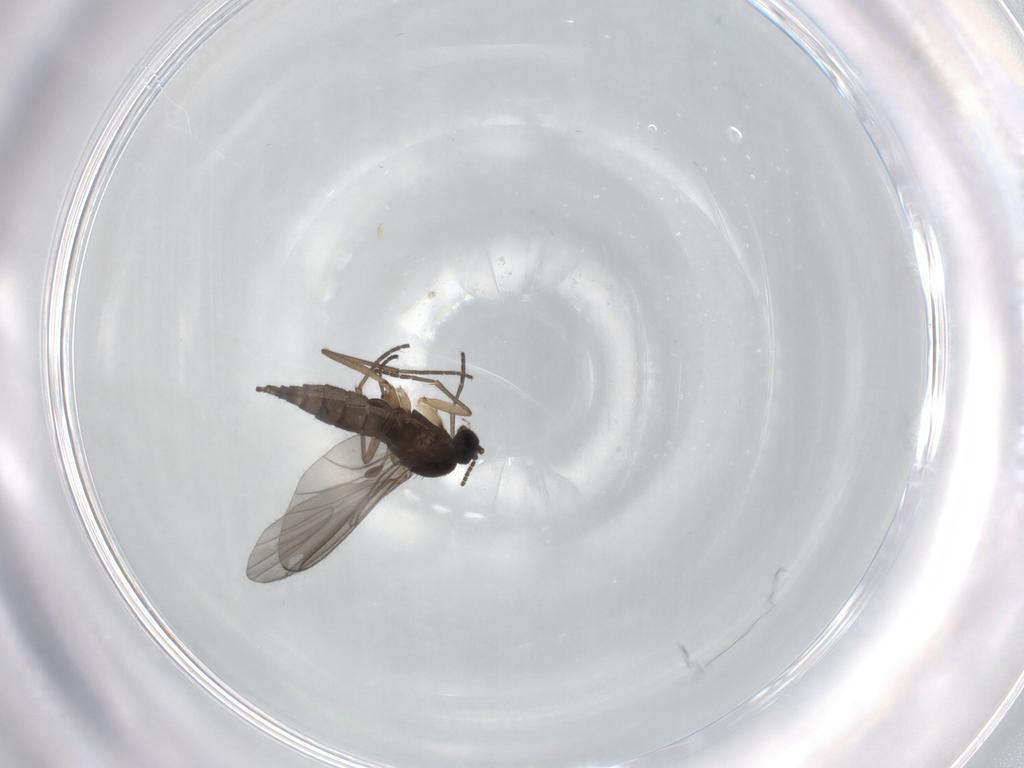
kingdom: Animalia
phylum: Arthropoda
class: Insecta
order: Diptera
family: Sciaridae
